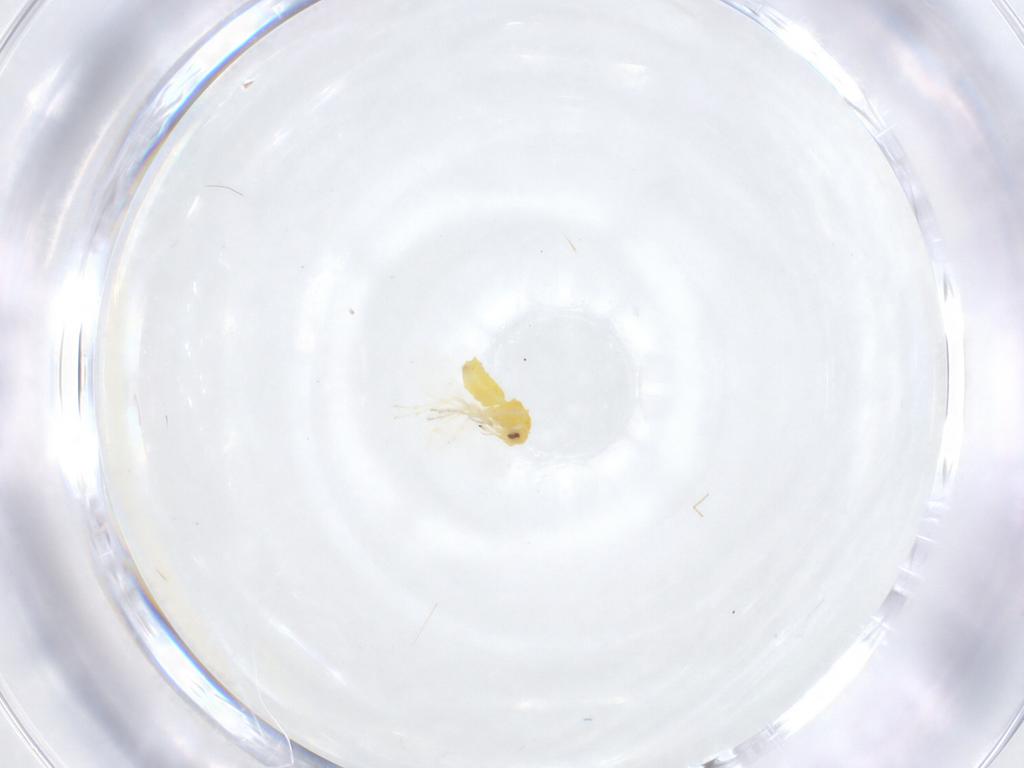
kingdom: Animalia
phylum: Arthropoda
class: Insecta
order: Hemiptera
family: Aleyrodidae
